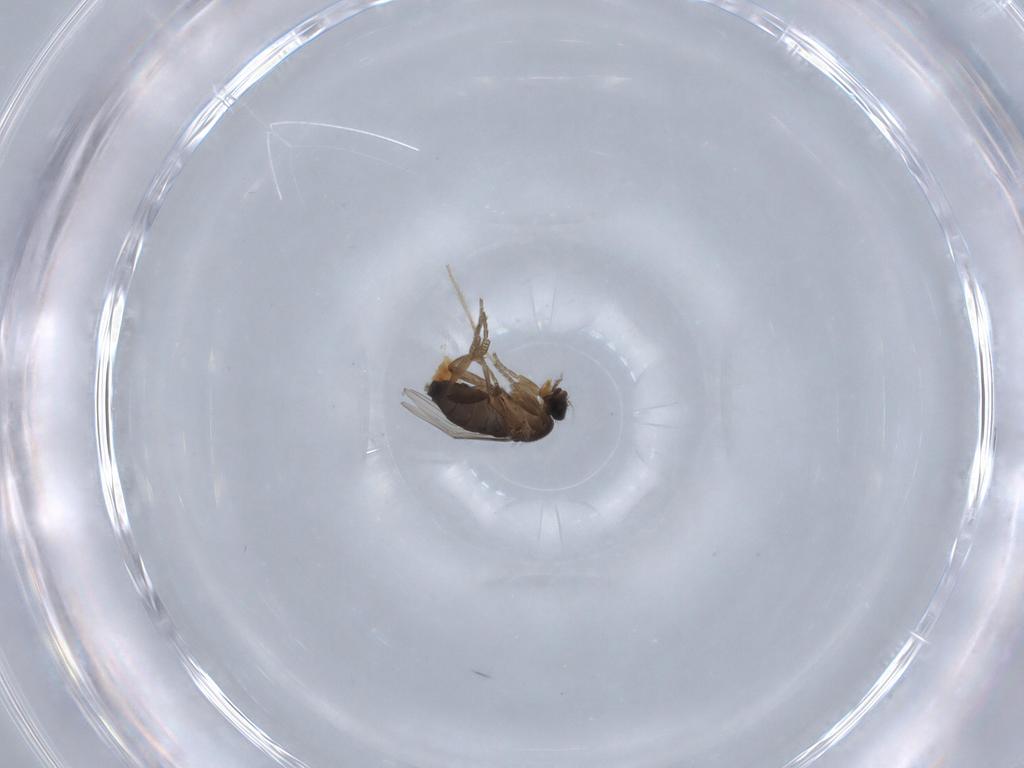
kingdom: Animalia
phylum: Arthropoda
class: Insecta
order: Diptera
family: Phoridae
